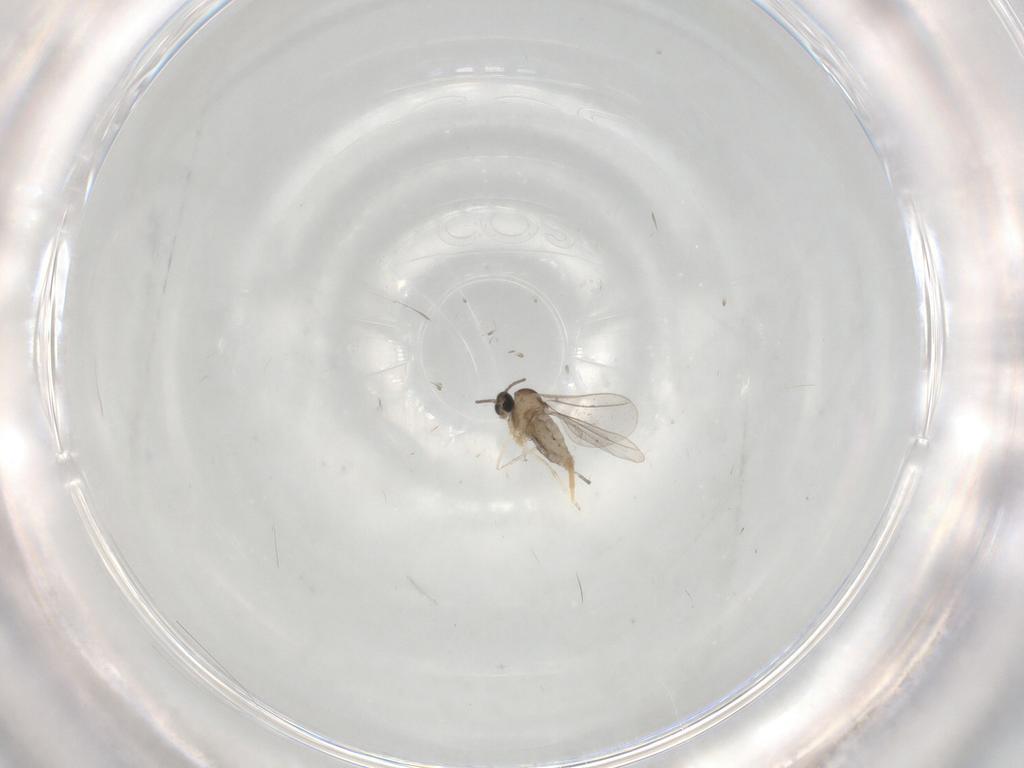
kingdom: Animalia
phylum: Arthropoda
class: Insecta
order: Diptera
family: Cecidomyiidae
